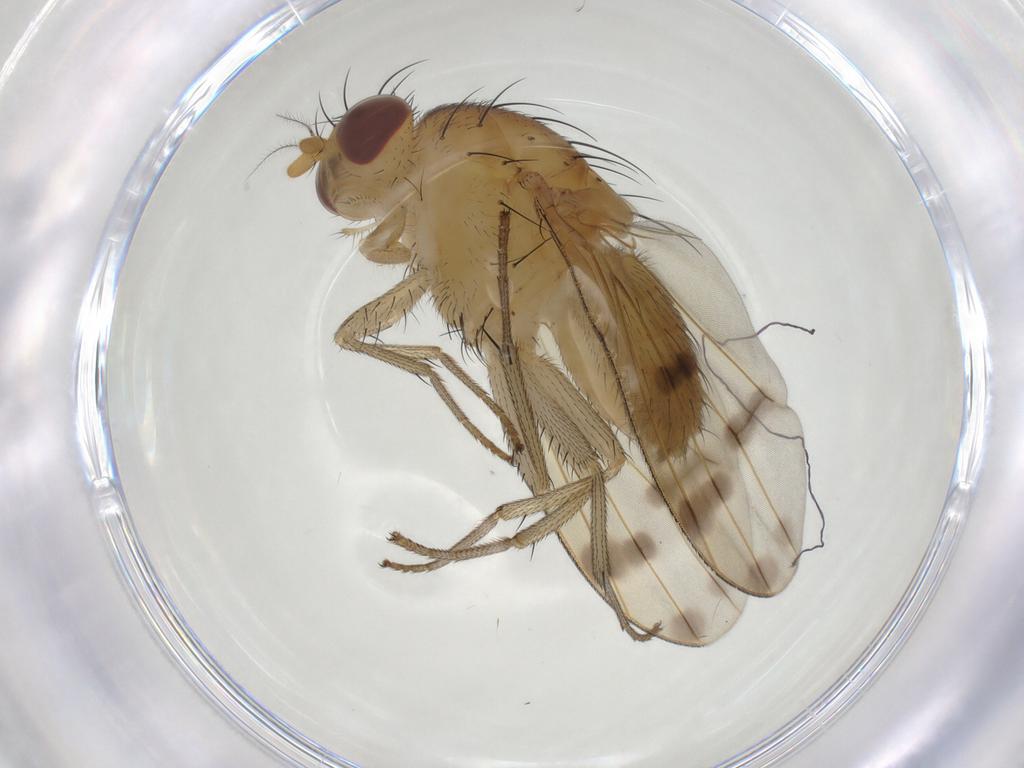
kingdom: Animalia
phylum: Arthropoda
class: Insecta
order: Diptera
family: Lauxaniidae
